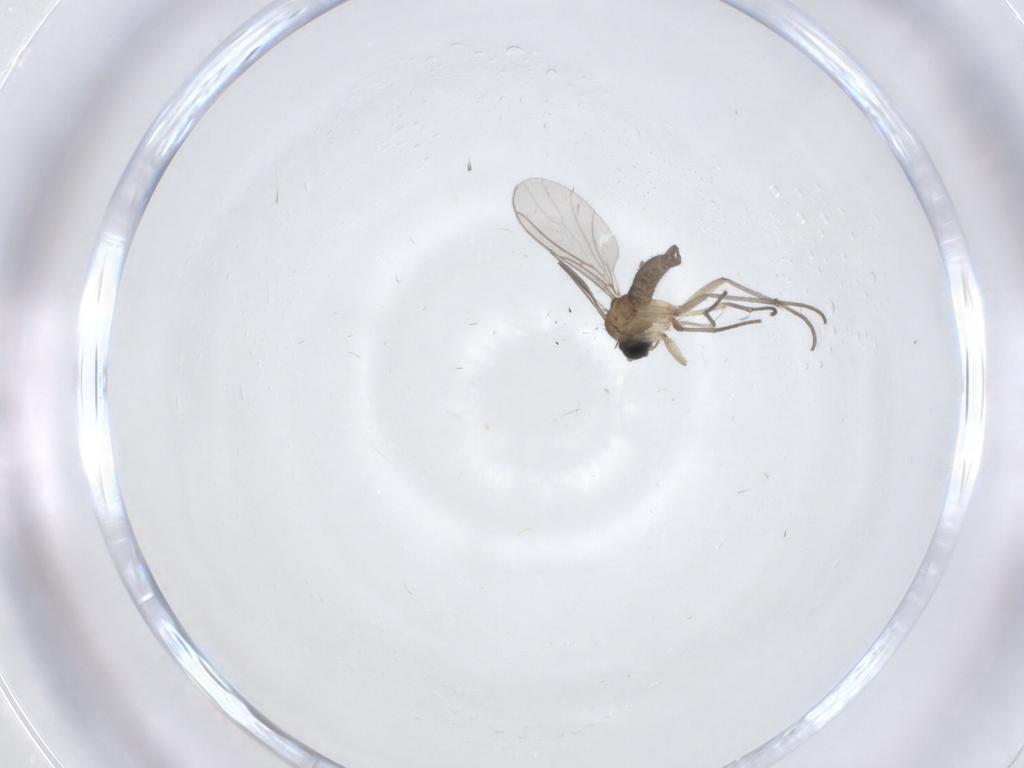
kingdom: Animalia
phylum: Arthropoda
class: Insecta
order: Diptera
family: Sciaridae
